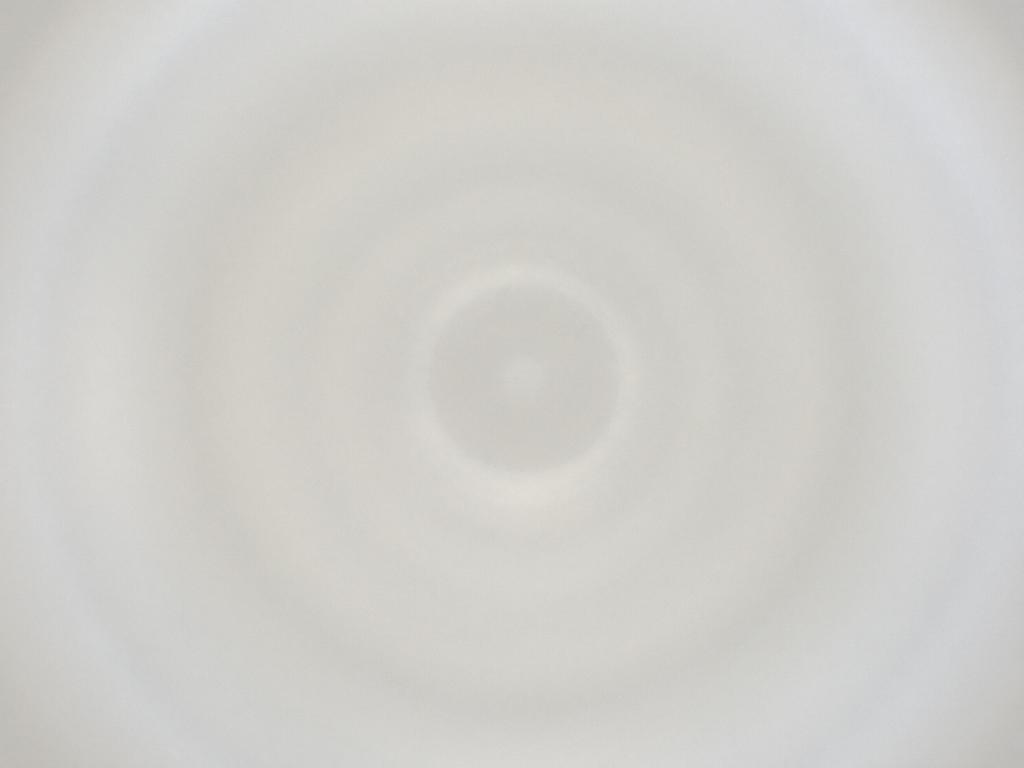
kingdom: Animalia
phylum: Arthropoda
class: Insecta
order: Diptera
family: Cecidomyiidae
